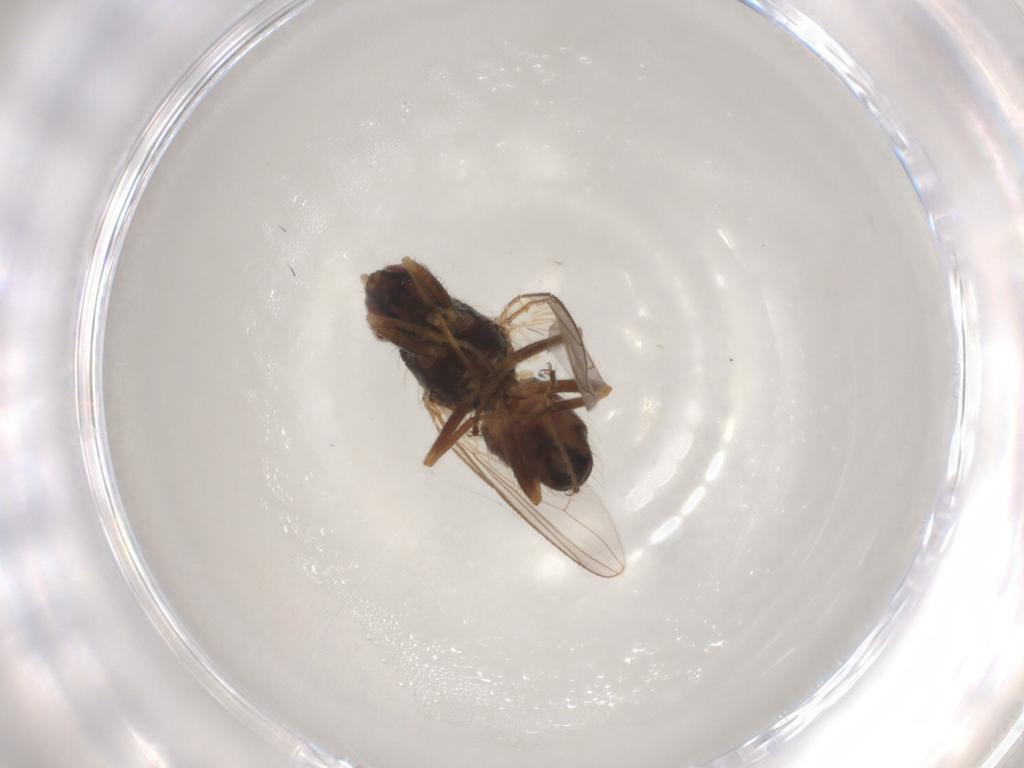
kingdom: Animalia
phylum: Arthropoda
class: Insecta
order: Diptera
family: Muscidae
